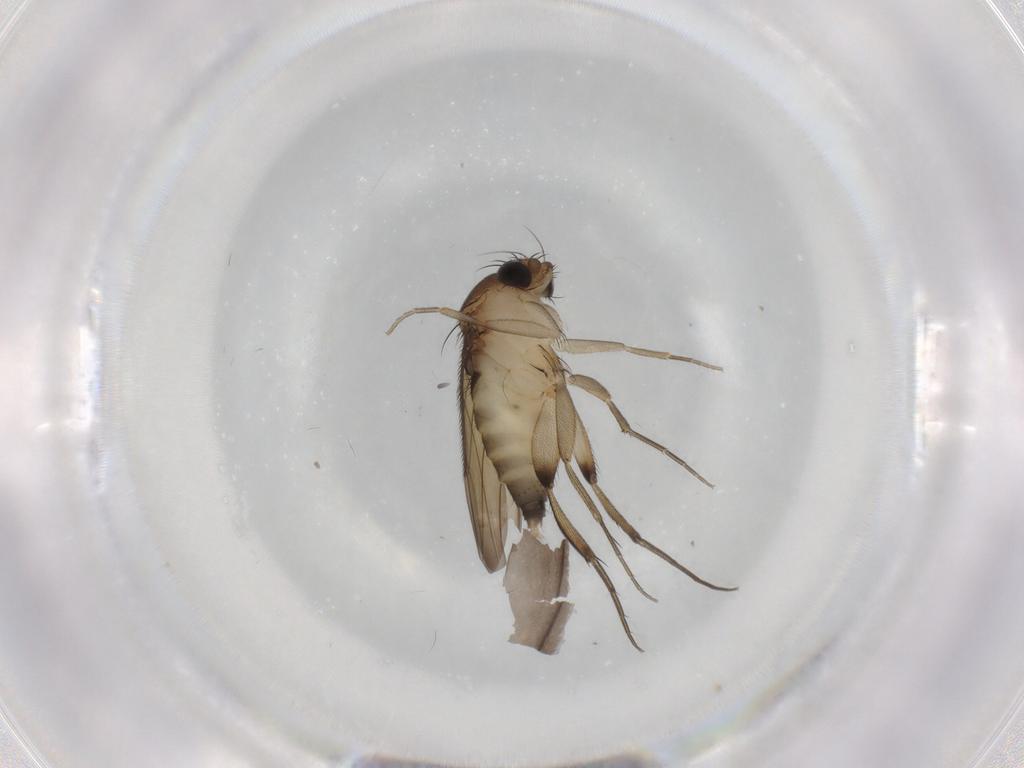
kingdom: Animalia
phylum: Arthropoda
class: Insecta
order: Diptera
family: Phoridae
